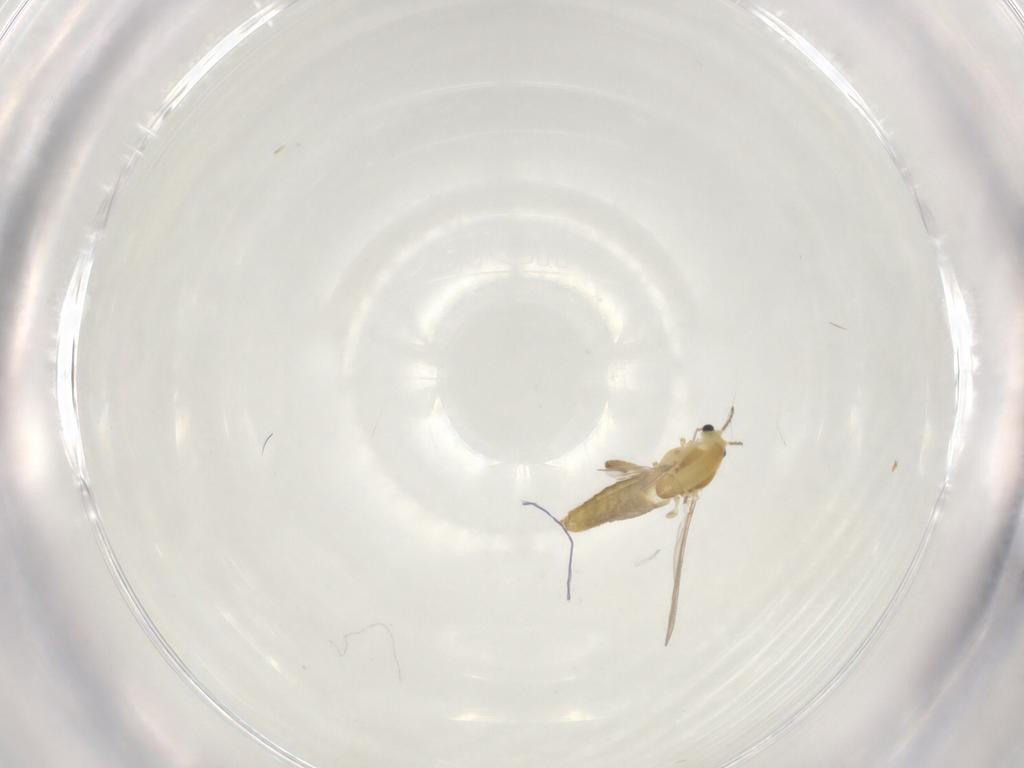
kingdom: Animalia
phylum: Arthropoda
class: Insecta
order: Diptera
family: Chironomidae
